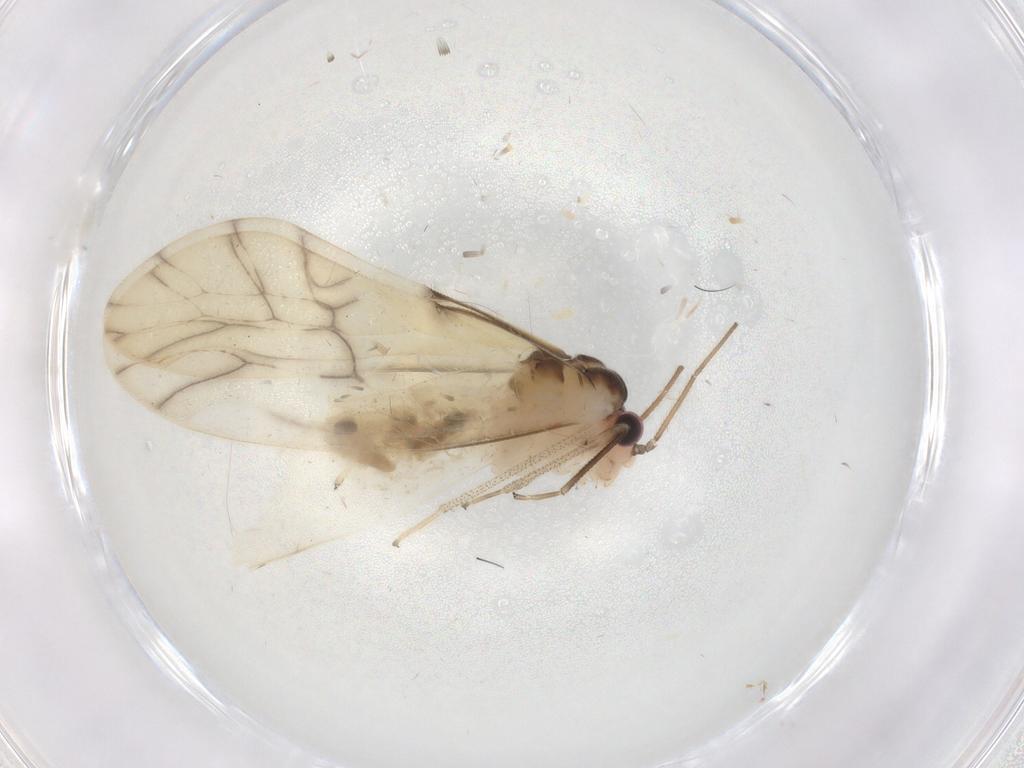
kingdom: Animalia
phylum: Arthropoda
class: Insecta
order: Psocodea
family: Caeciliusidae
